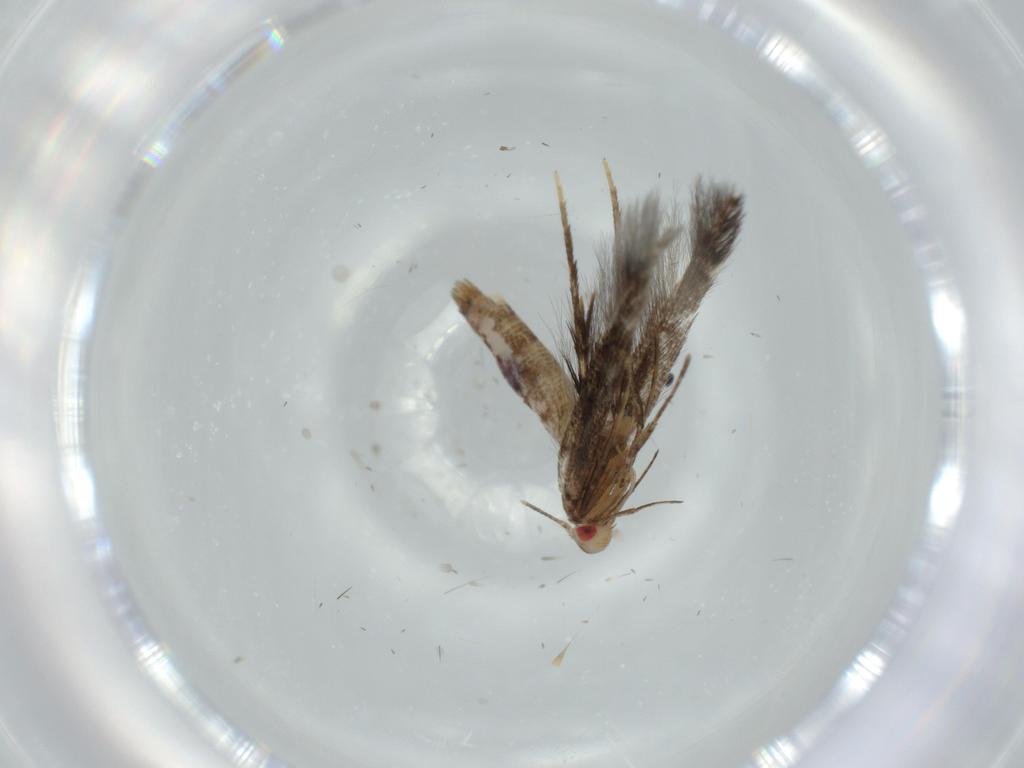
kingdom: Animalia
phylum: Arthropoda
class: Insecta
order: Lepidoptera
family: Cosmopterigidae
